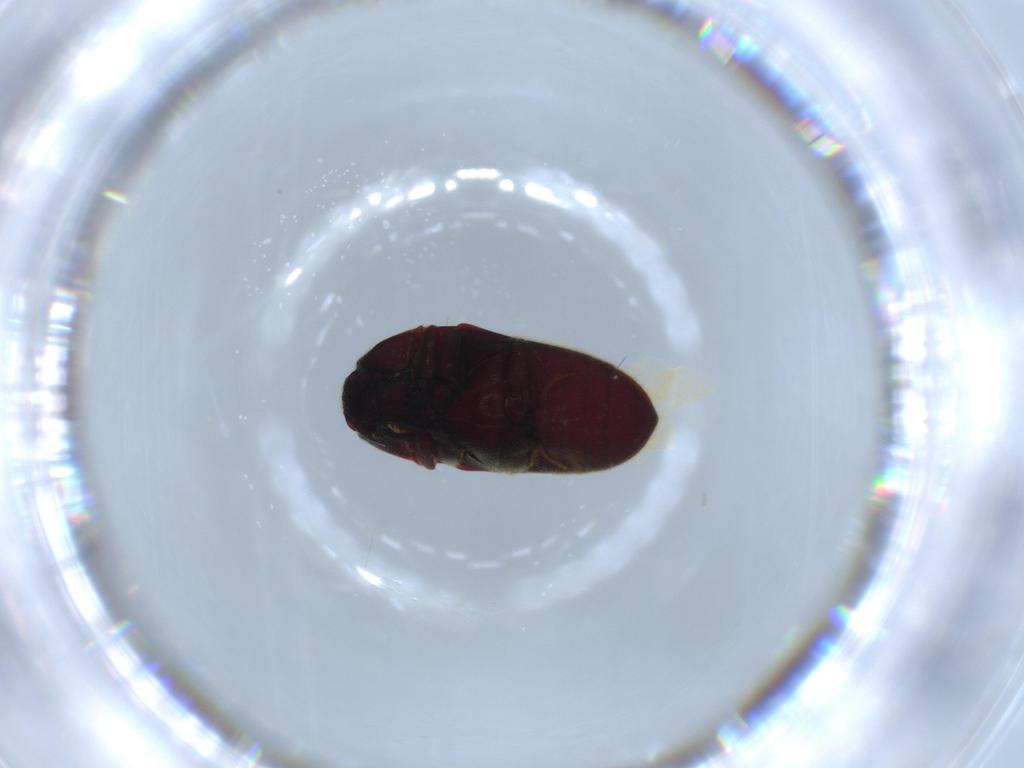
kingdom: Animalia
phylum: Arthropoda
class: Insecta
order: Coleoptera
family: Throscidae
